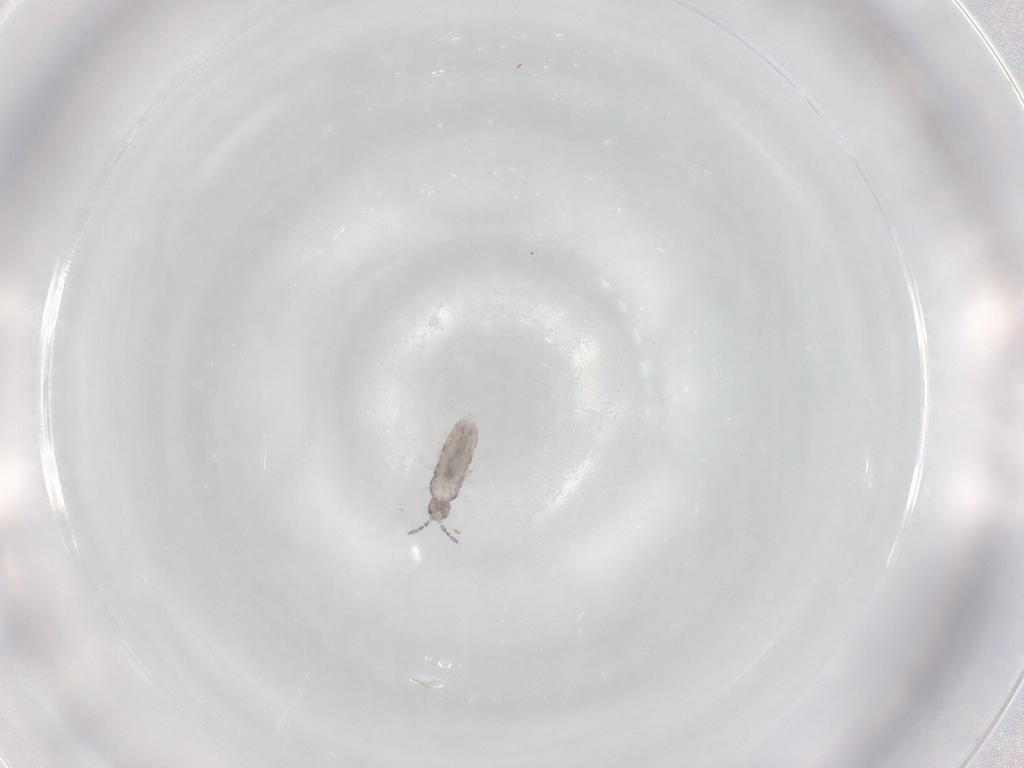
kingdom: Animalia
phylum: Arthropoda
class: Collembola
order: Entomobryomorpha
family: Entomobryidae
